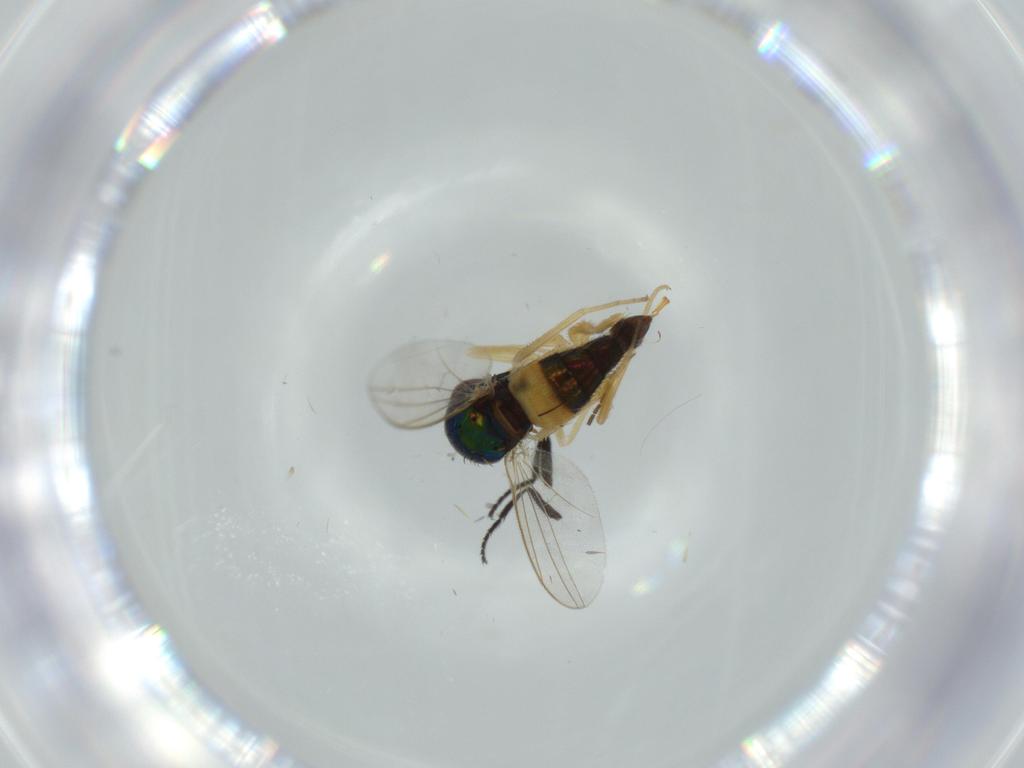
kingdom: Animalia
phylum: Arthropoda
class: Insecta
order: Diptera
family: Dolichopodidae
